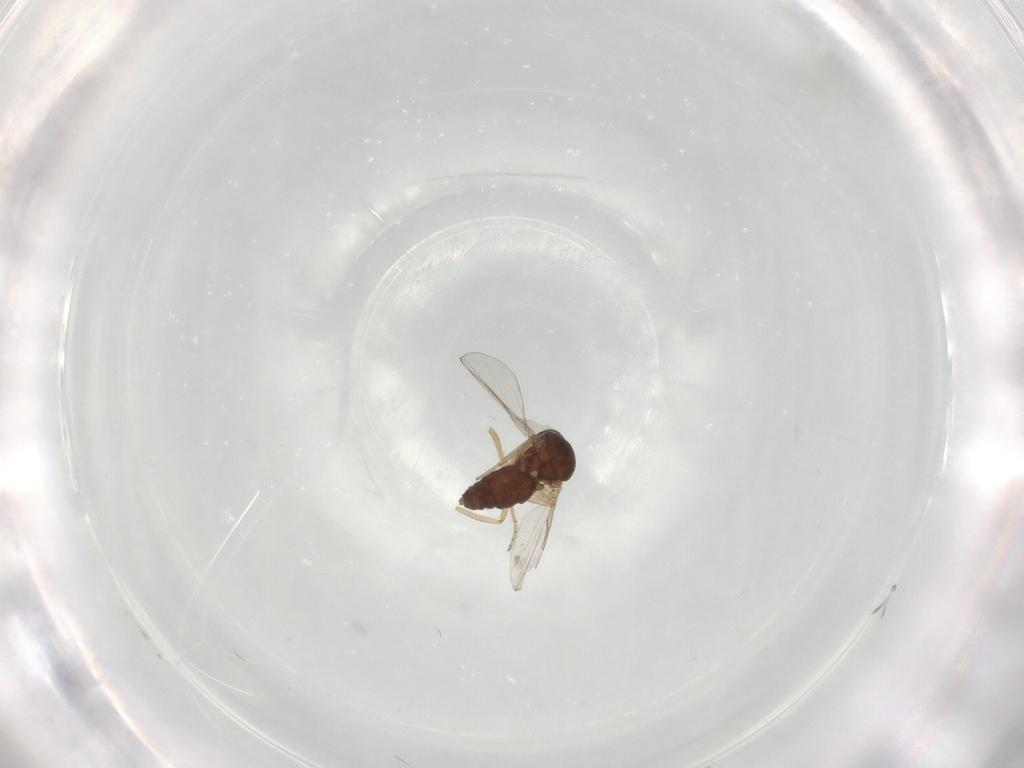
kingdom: Animalia
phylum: Arthropoda
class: Insecta
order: Diptera
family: Ceratopogonidae
